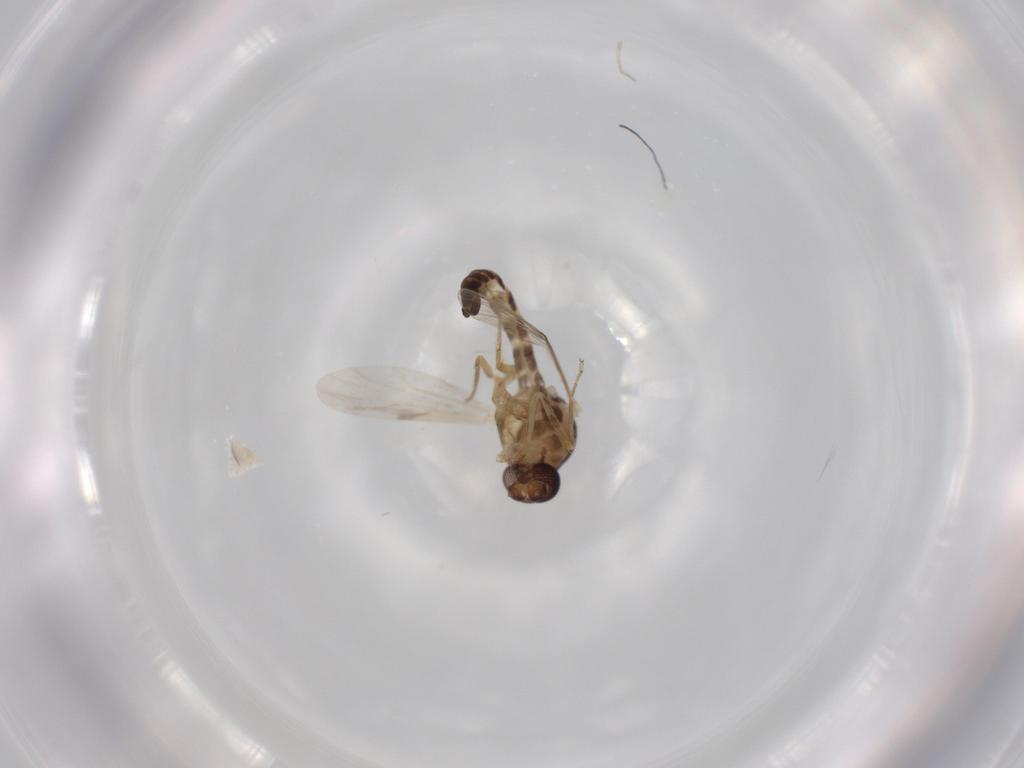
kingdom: Animalia
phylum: Arthropoda
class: Insecta
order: Diptera
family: Ceratopogonidae
